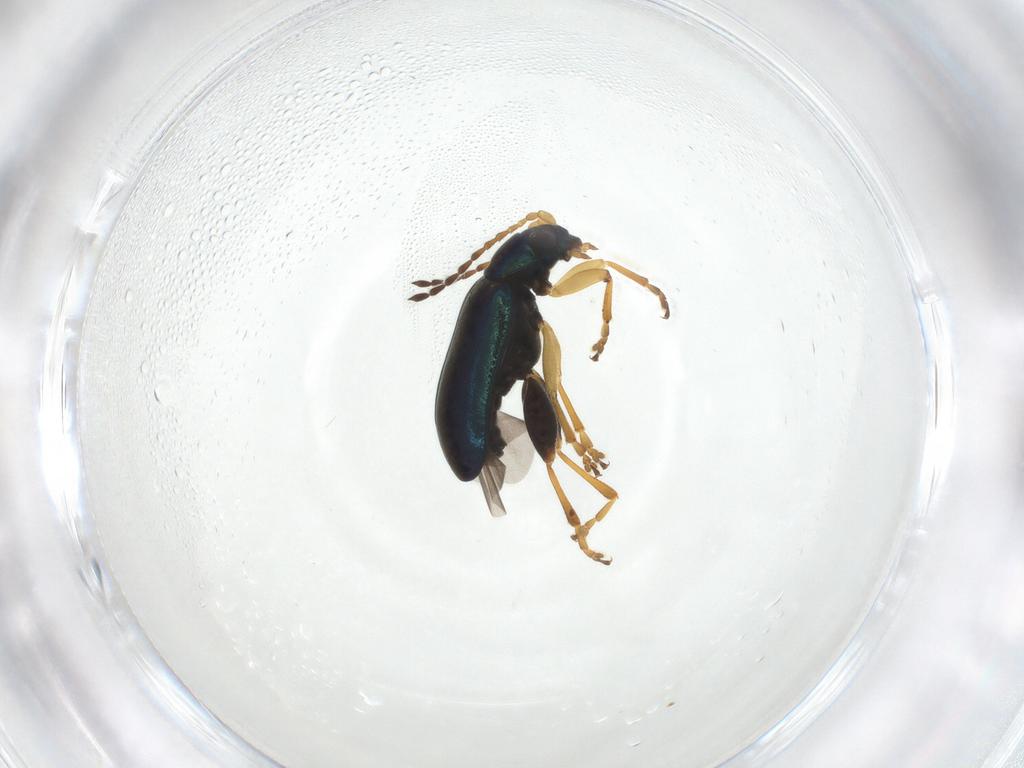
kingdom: Animalia
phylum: Arthropoda
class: Insecta
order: Coleoptera
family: Chrysomelidae
